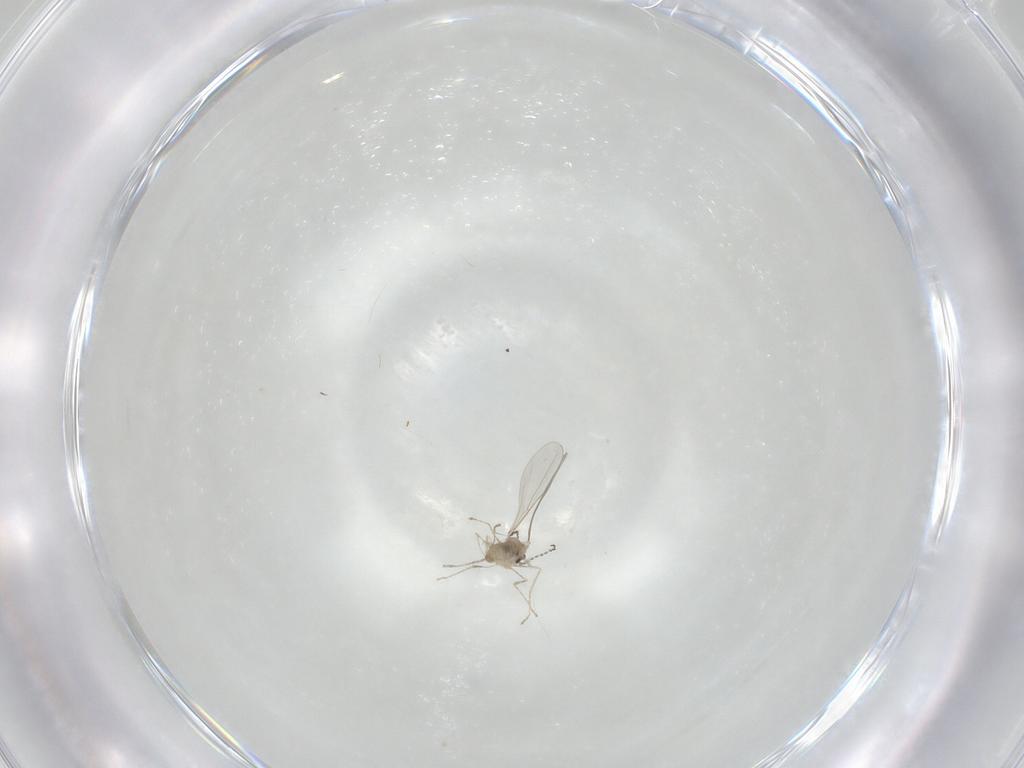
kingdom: Animalia
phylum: Arthropoda
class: Insecta
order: Diptera
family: Cecidomyiidae
